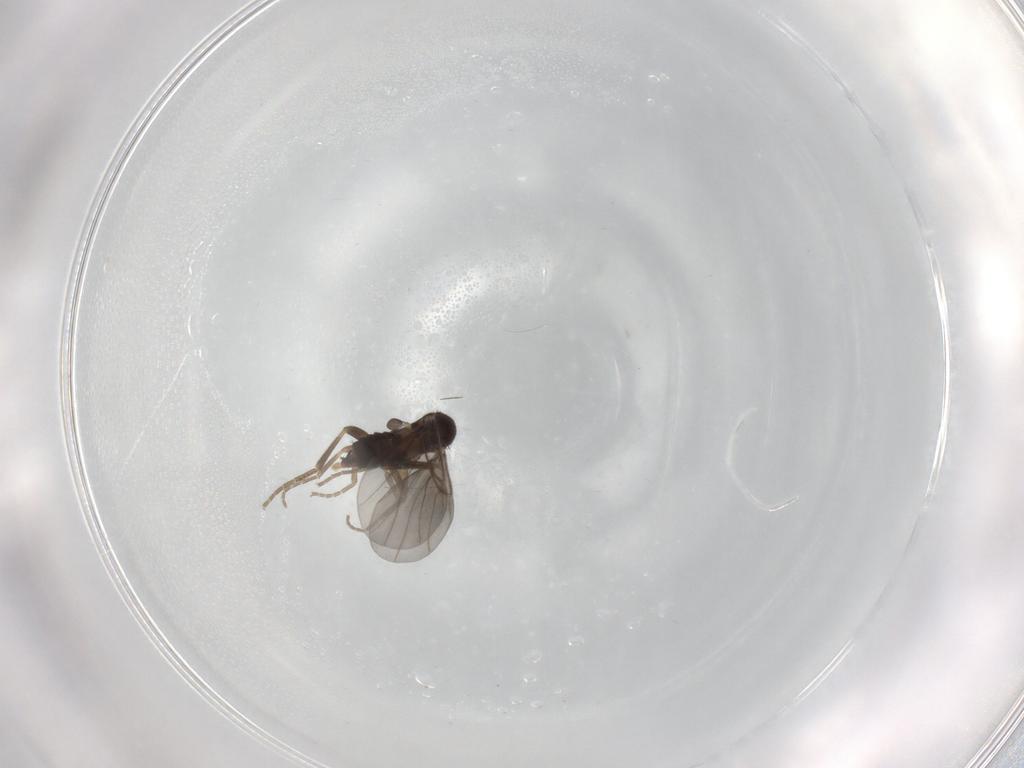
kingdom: Animalia
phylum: Arthropoda
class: Insecta
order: Diptera
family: Phoridae
